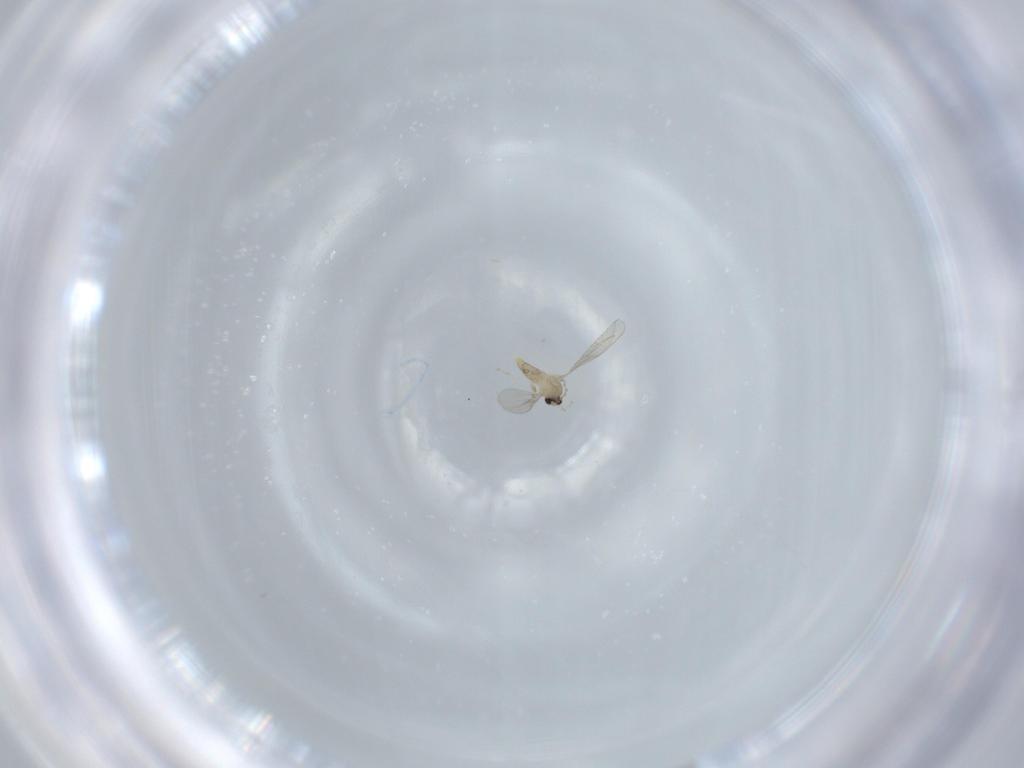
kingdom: Animalia
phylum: Arthropoda
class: Insecta
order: Diptera
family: Cecidomyiidae
